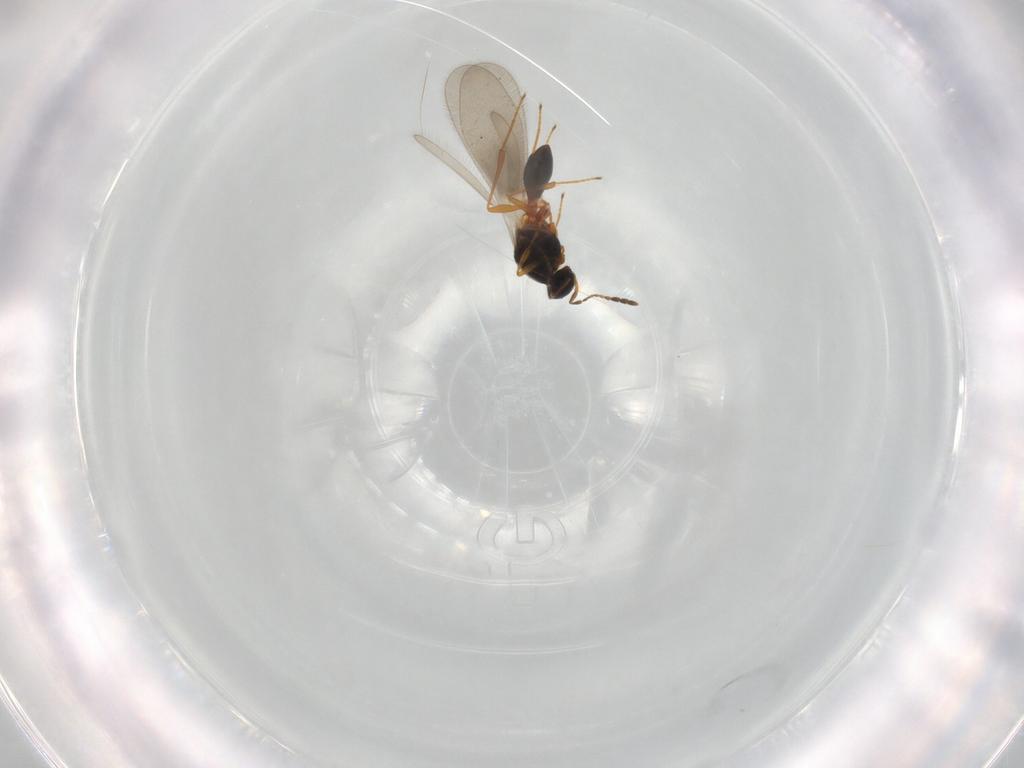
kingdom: Animalia
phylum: Arthropoda
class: Insecta
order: Hymenoptera
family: Platygastridae
